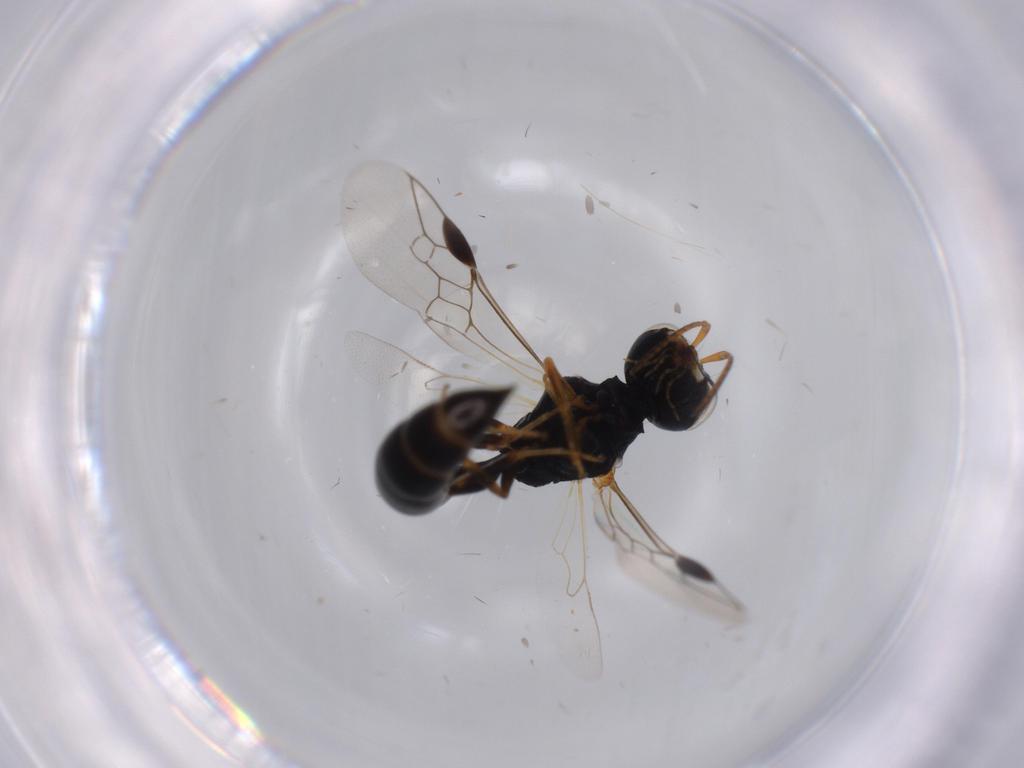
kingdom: Animalia
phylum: Arthropoda
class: Insecta
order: Hymenoptera
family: Crabronidae
